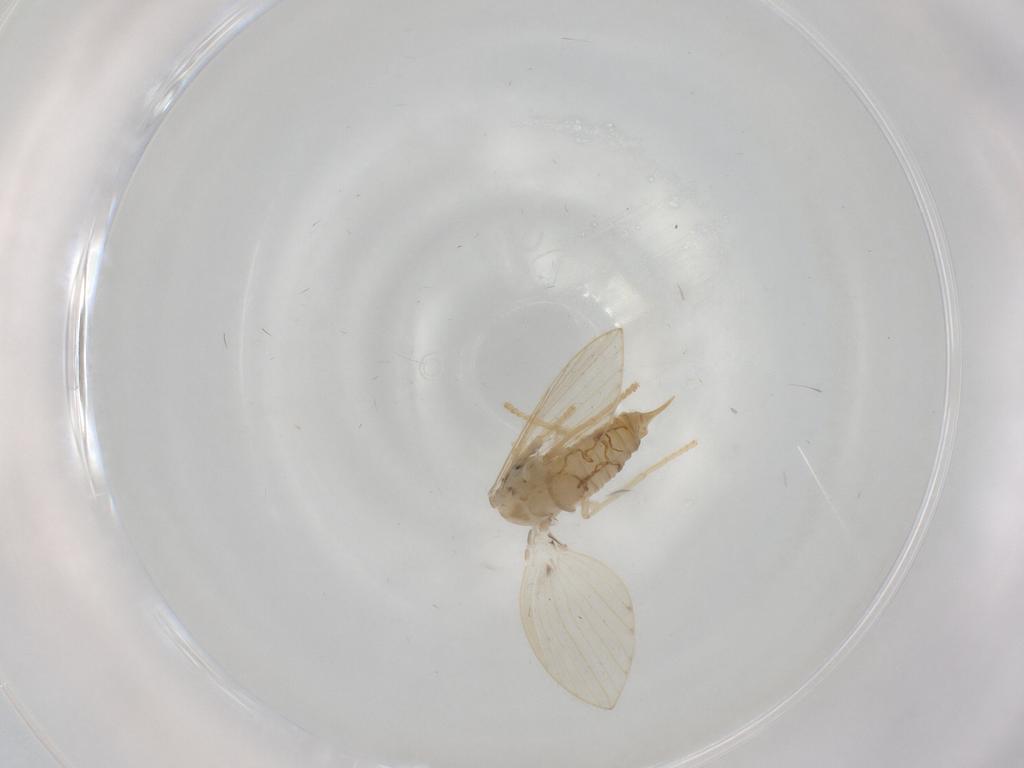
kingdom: Animalia
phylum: Arthropoda
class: Insecta
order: Diptera
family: Psychodidae
